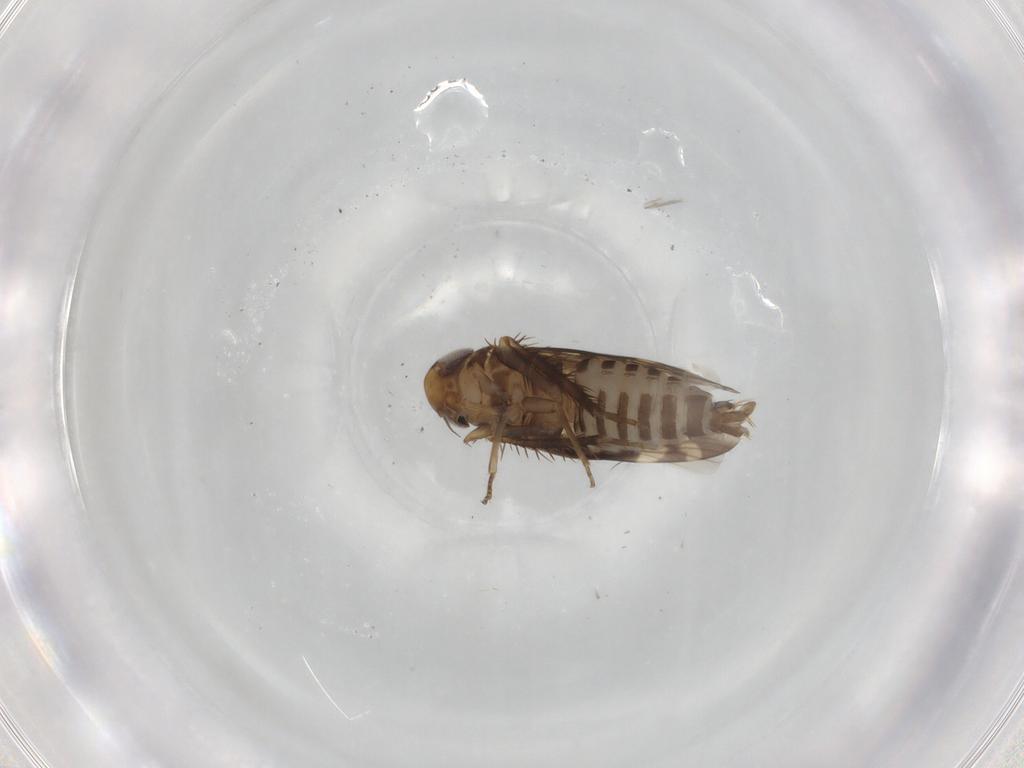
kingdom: Animalia
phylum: Arthropoda
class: Insecta
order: Hemiptera
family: Cicadellidae
